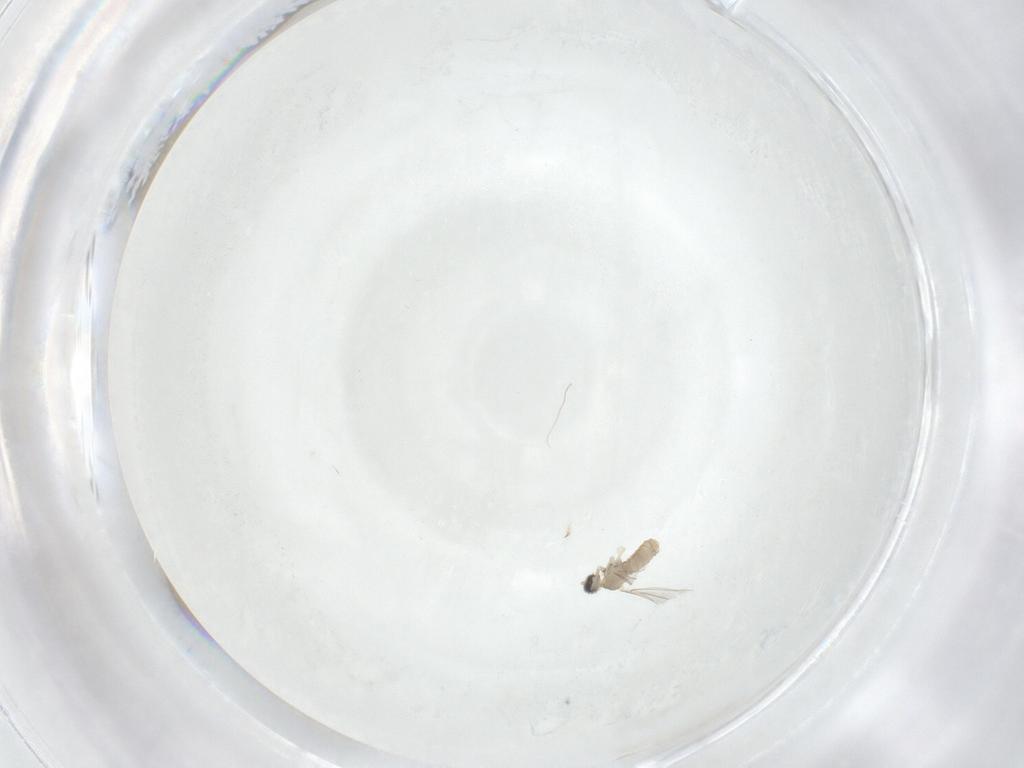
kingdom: Animalia
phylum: Arthropoda
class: Insecta
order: Diptera
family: Cecidomyiidae
